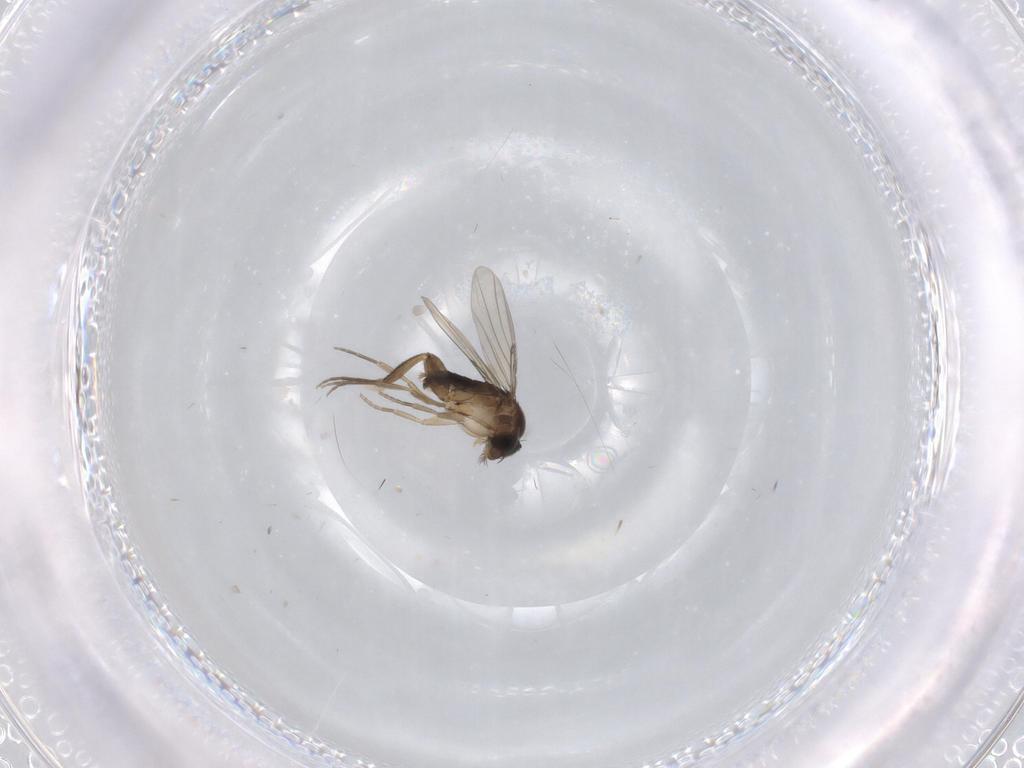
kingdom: Animalia
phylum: Arthropoda
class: Insecta
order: Diptera
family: Phoridae
